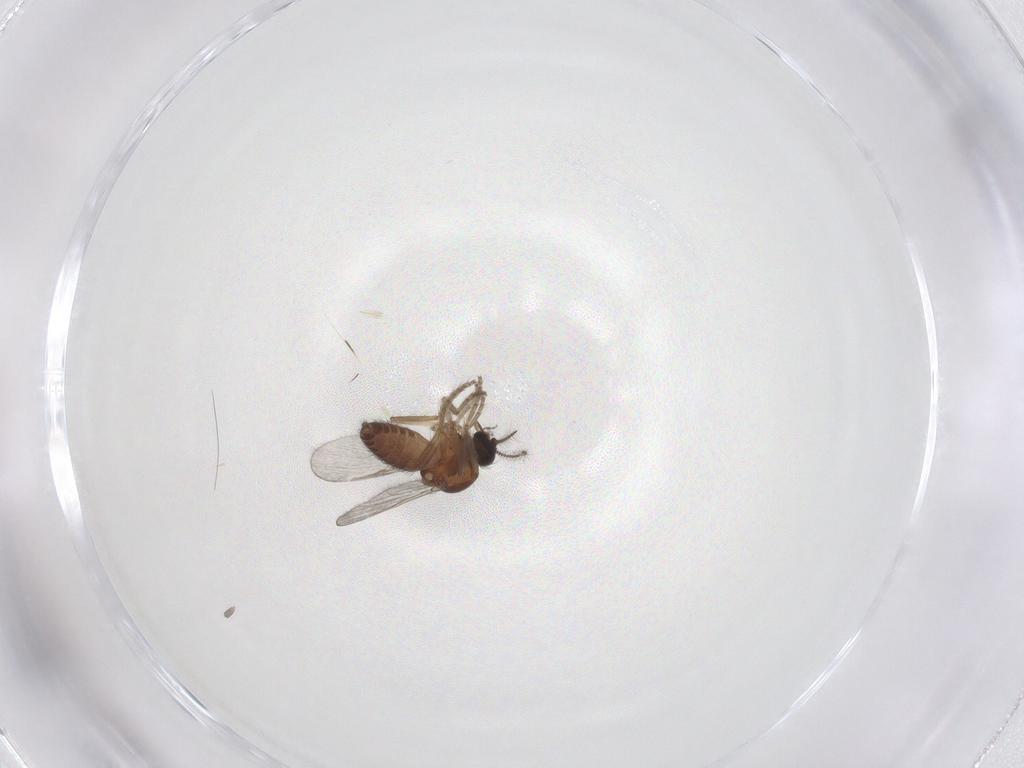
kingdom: Animalia
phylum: Arthropoda
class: Insecta
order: Diptera
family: Ceratopogonidae
